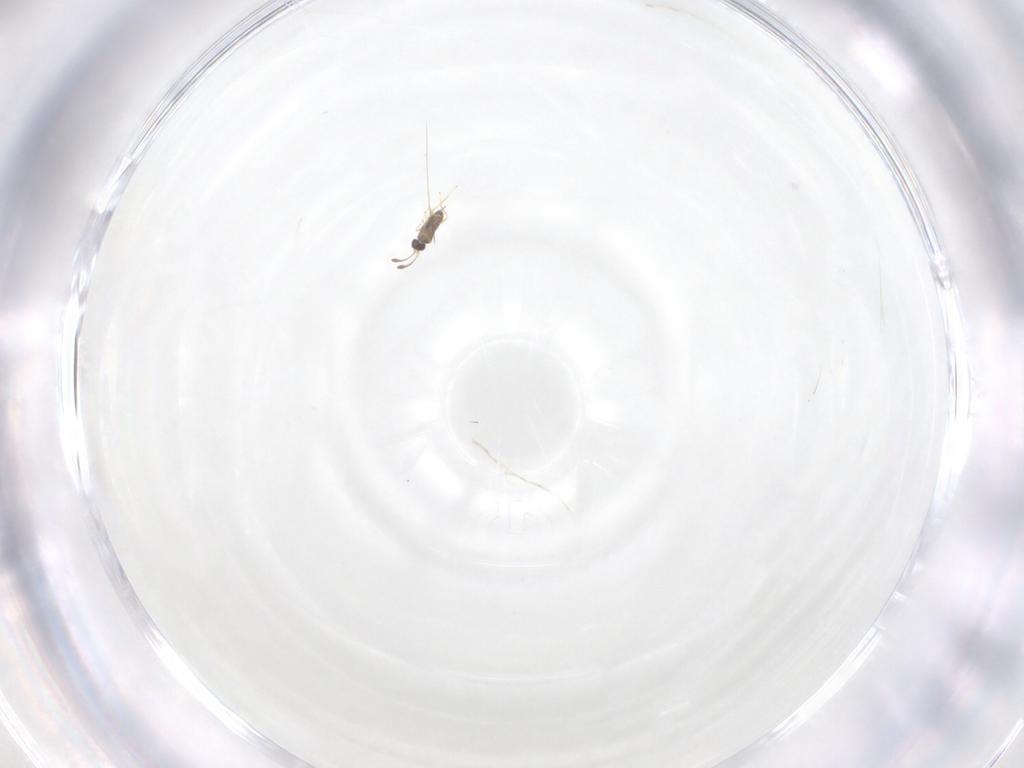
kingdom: Animalia
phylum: Arthropoda
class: Insecta
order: Hymenoptera
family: Mymaridae
